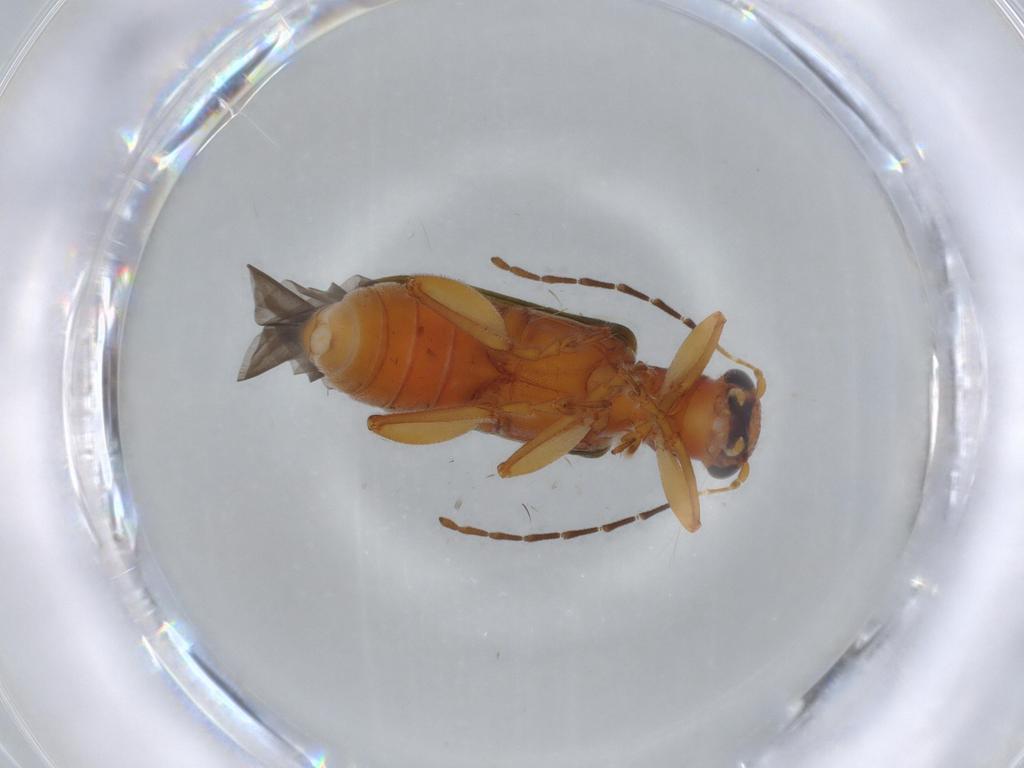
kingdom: Animalia
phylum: Arthropoda
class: Insecta
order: Coleoptera
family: Chrysomelidae
